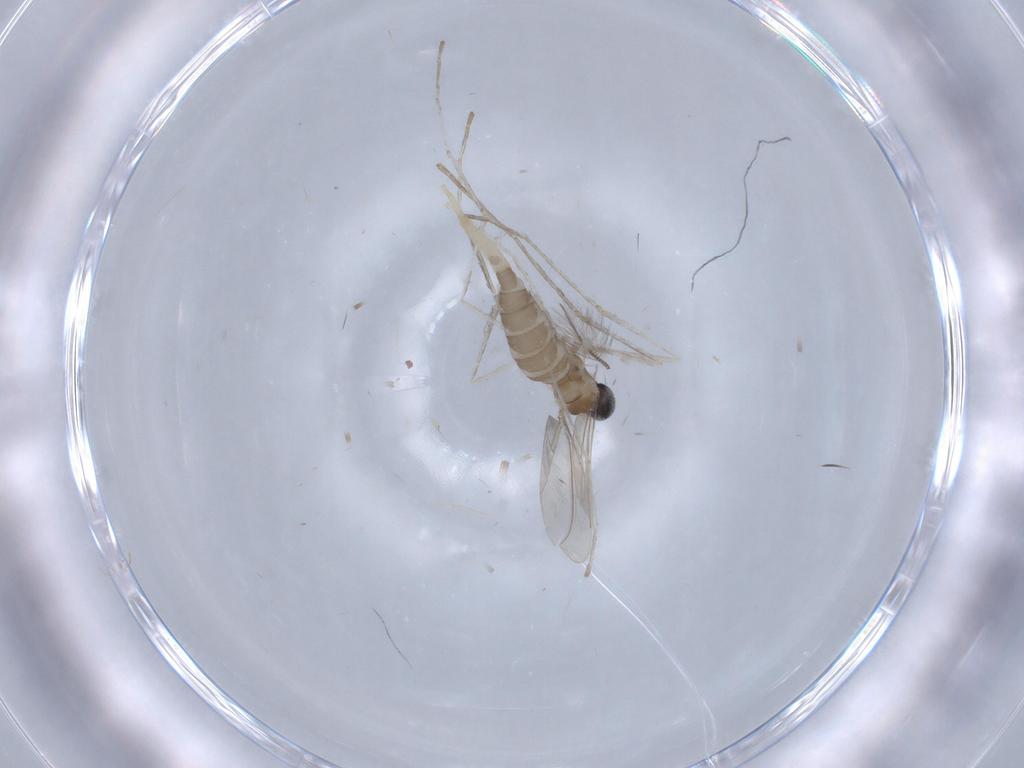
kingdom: Animalia
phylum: Arthropoda
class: Insecta
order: Diptera
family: Cecidomyiidae
